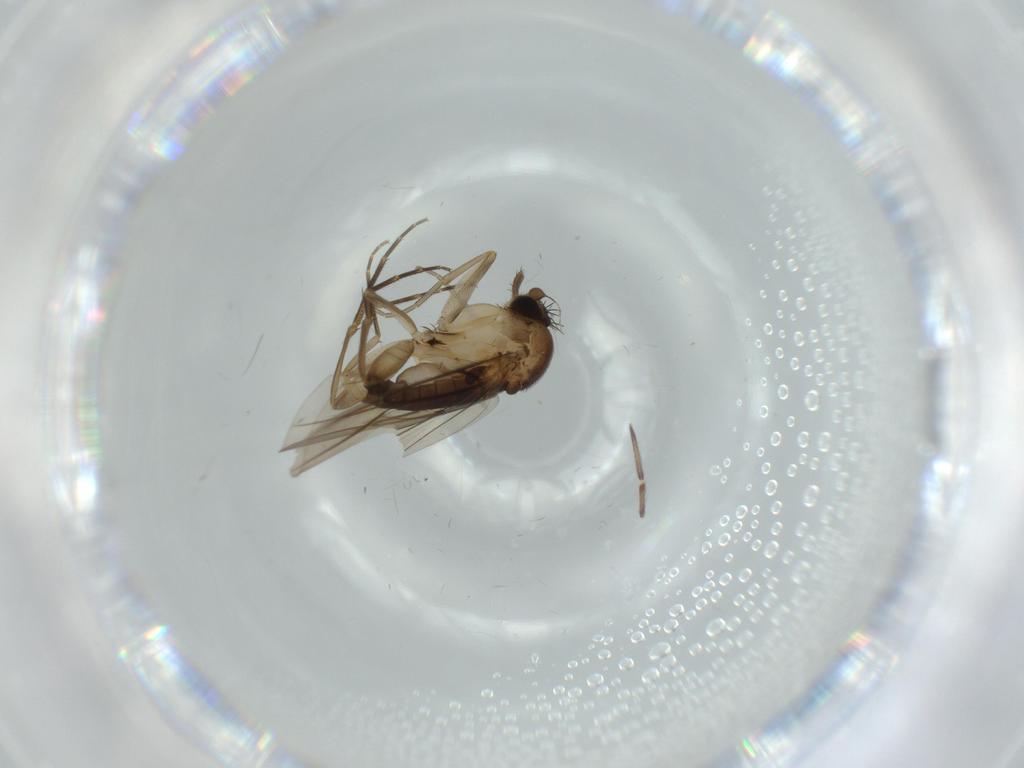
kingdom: Animalia
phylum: Arthropoda
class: Insecta
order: Diptera
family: Phoridae
